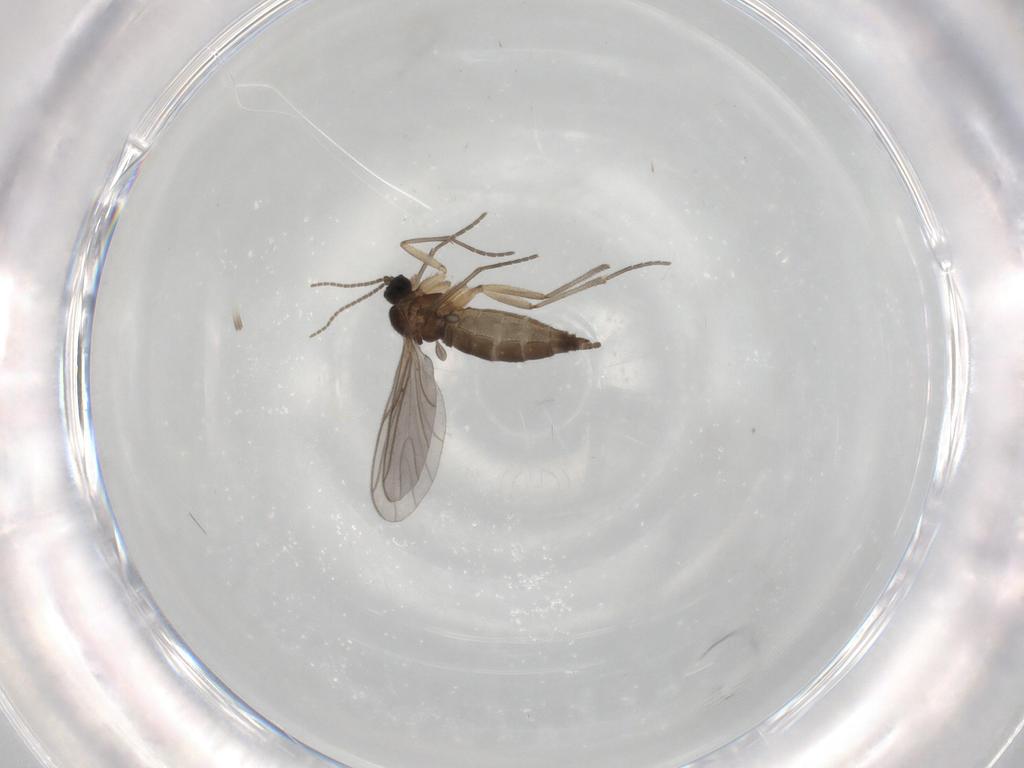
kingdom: Animalia
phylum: Arthropoda
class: Insecta
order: Diptera
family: Sciaridae
